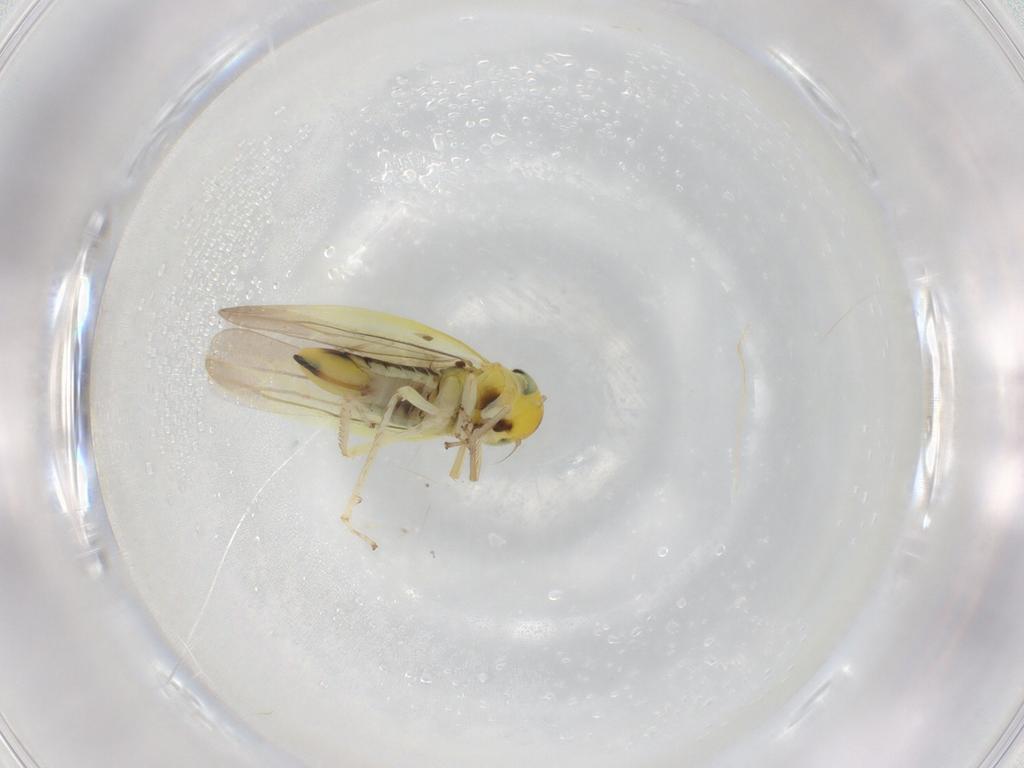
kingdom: Animalia
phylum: Arthropoda
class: Insecta
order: Hemiptera
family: Cicadellidae
